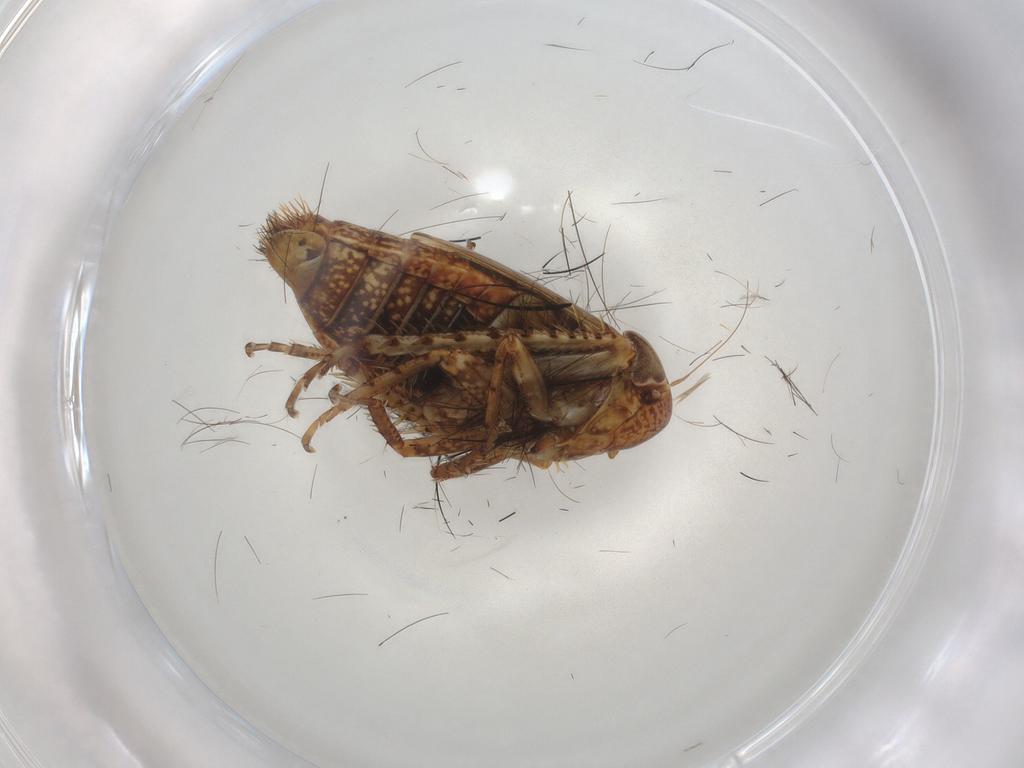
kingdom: Animalia
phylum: Arthropoda
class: Insecta
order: Hemiptera
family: Cicadellidae
